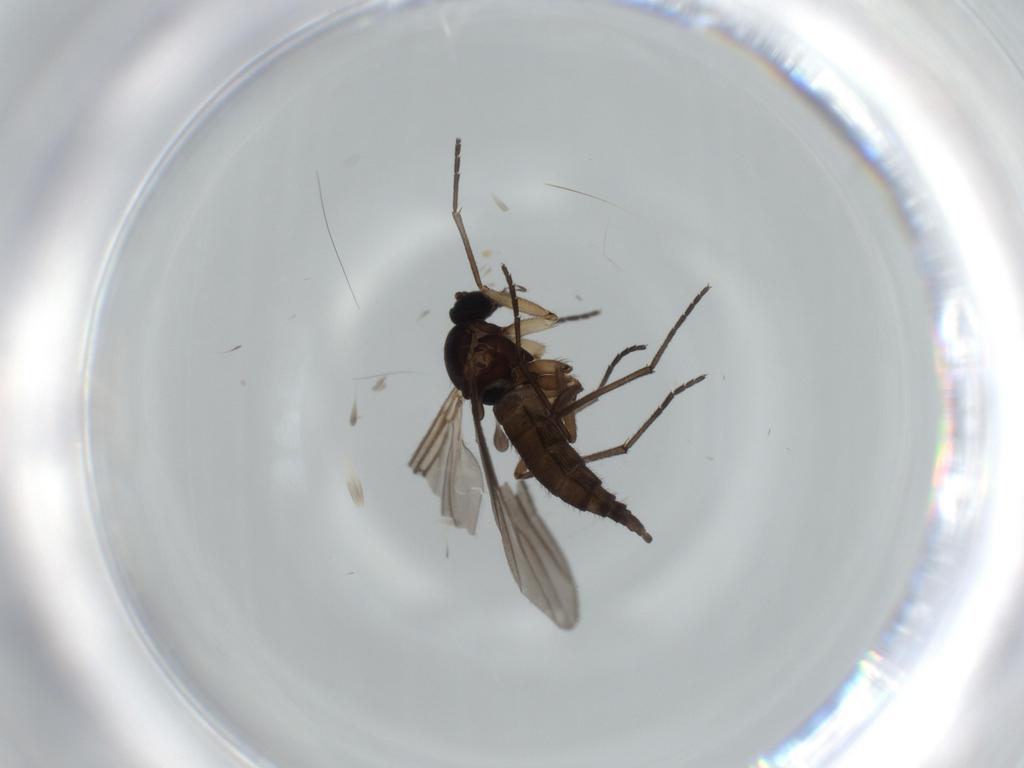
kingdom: Animalia
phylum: Arthropoda
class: Insecta
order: Diptera
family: Sciaridae
